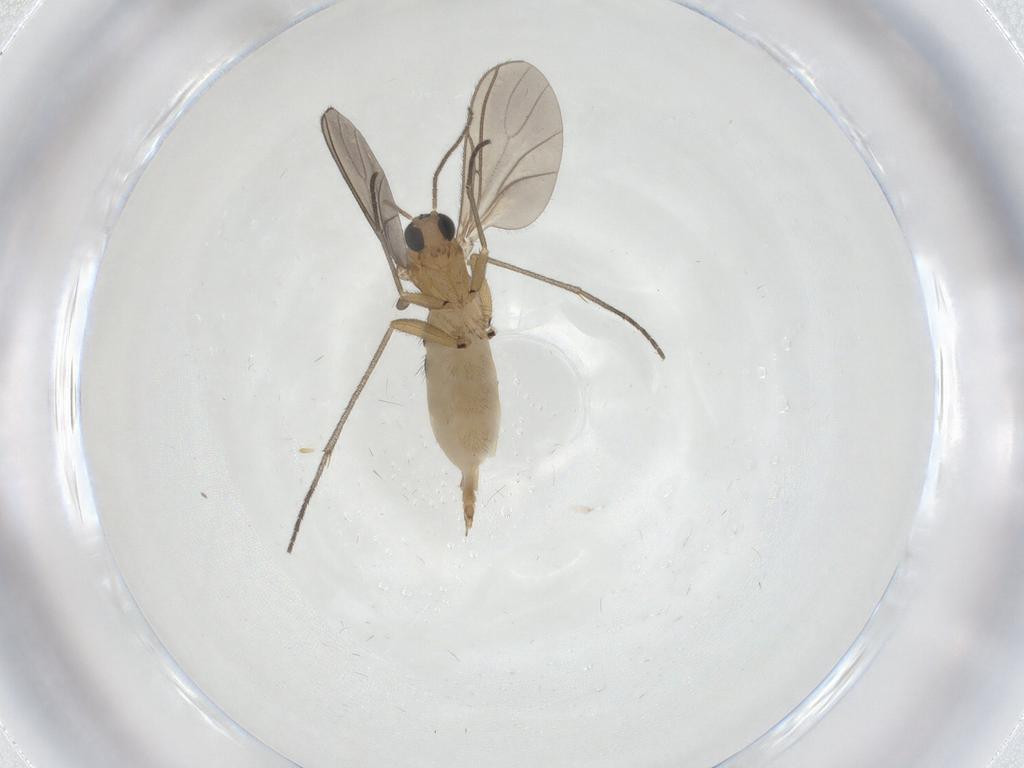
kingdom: Animalia
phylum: Arthropoda
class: Insecta
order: Diptera
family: Sciaridae
